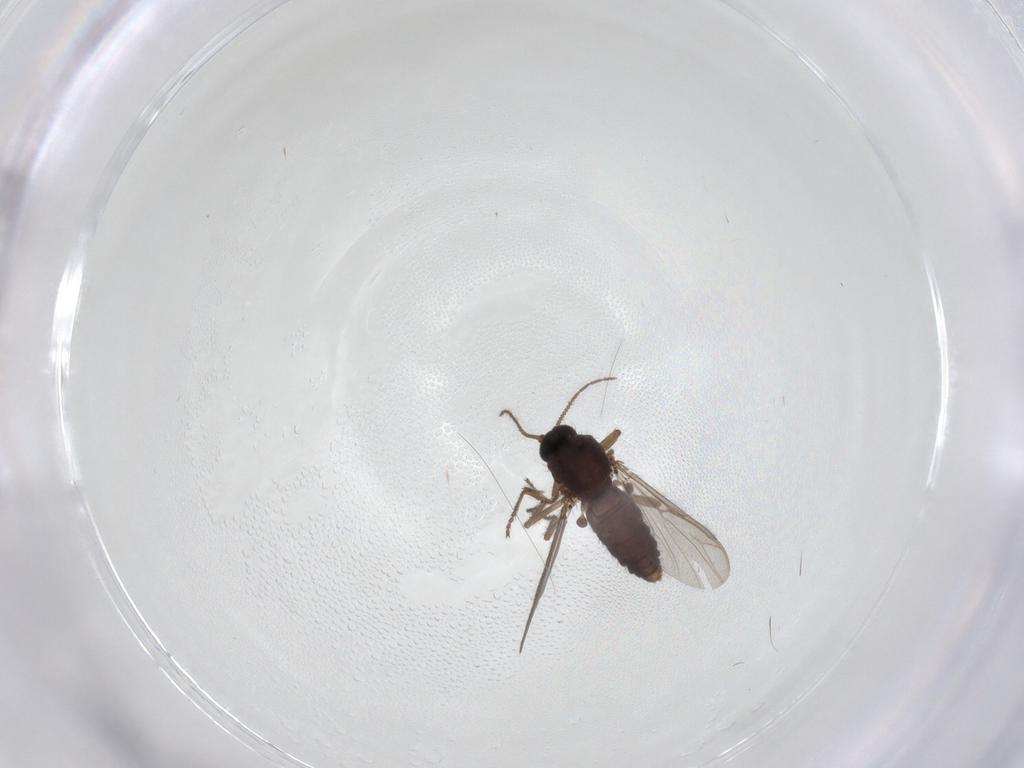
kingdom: Animalia
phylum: Arthropoda
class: Insecta
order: Diptera
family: Ceratopogonidae
